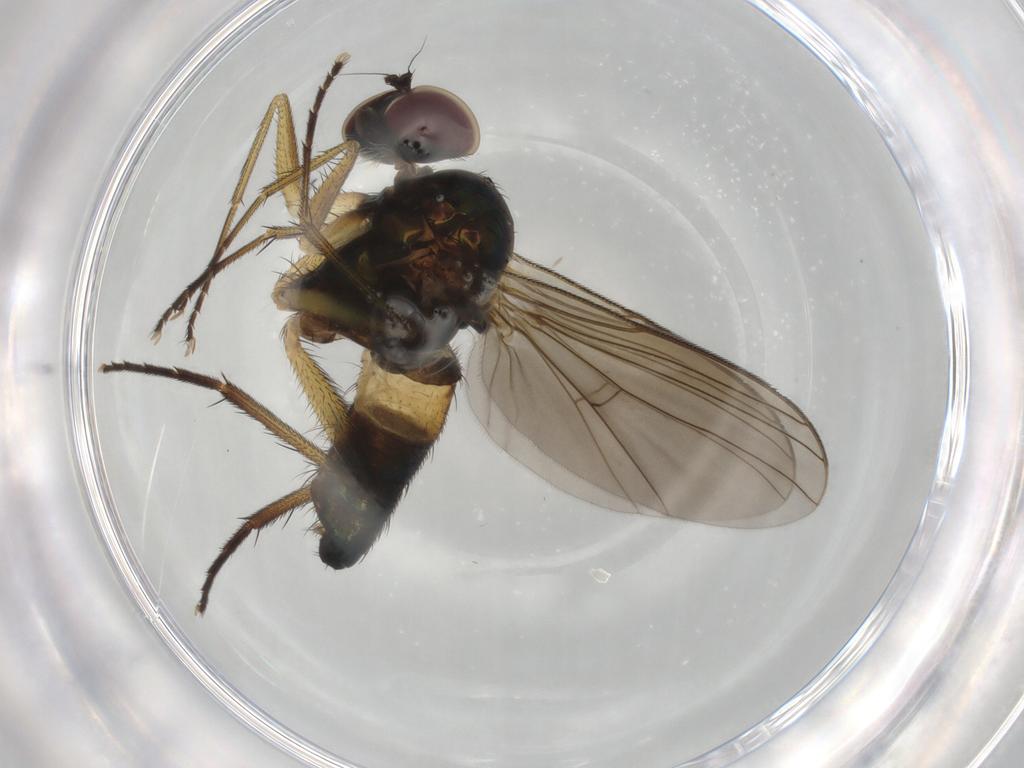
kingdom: Animalia
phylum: Arthropoda
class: Insecta
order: Diptera
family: Dolichopodidae
